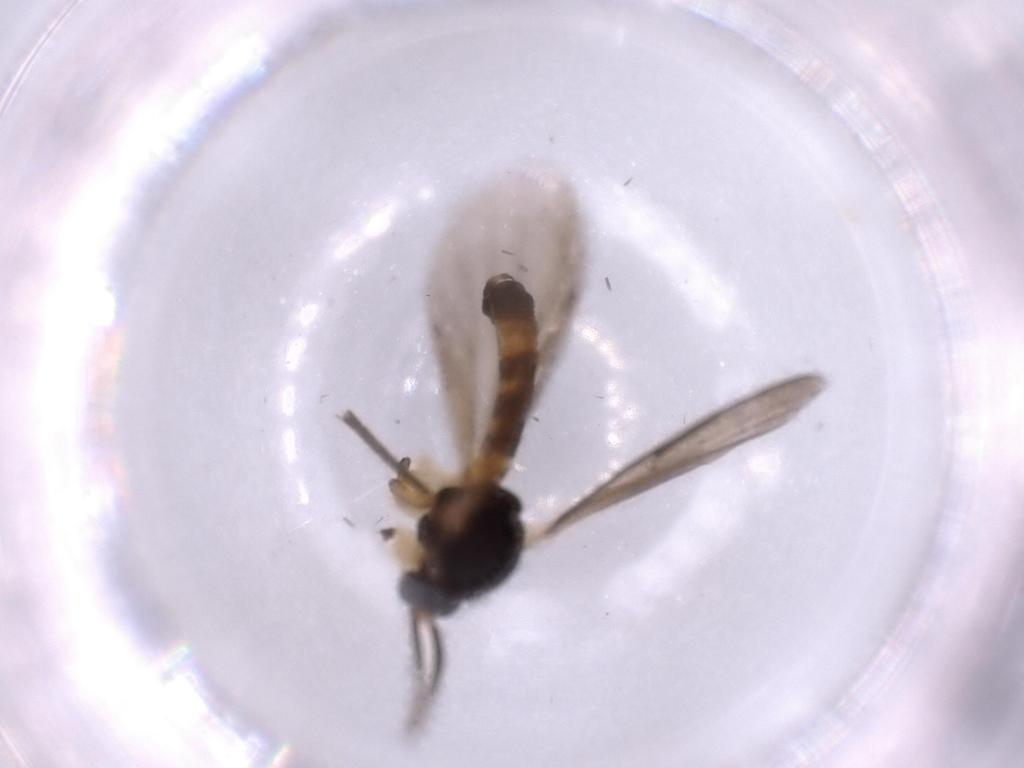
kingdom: Animalia
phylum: Arthropoda
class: Insecta
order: Diptera
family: Mycetophilidae
